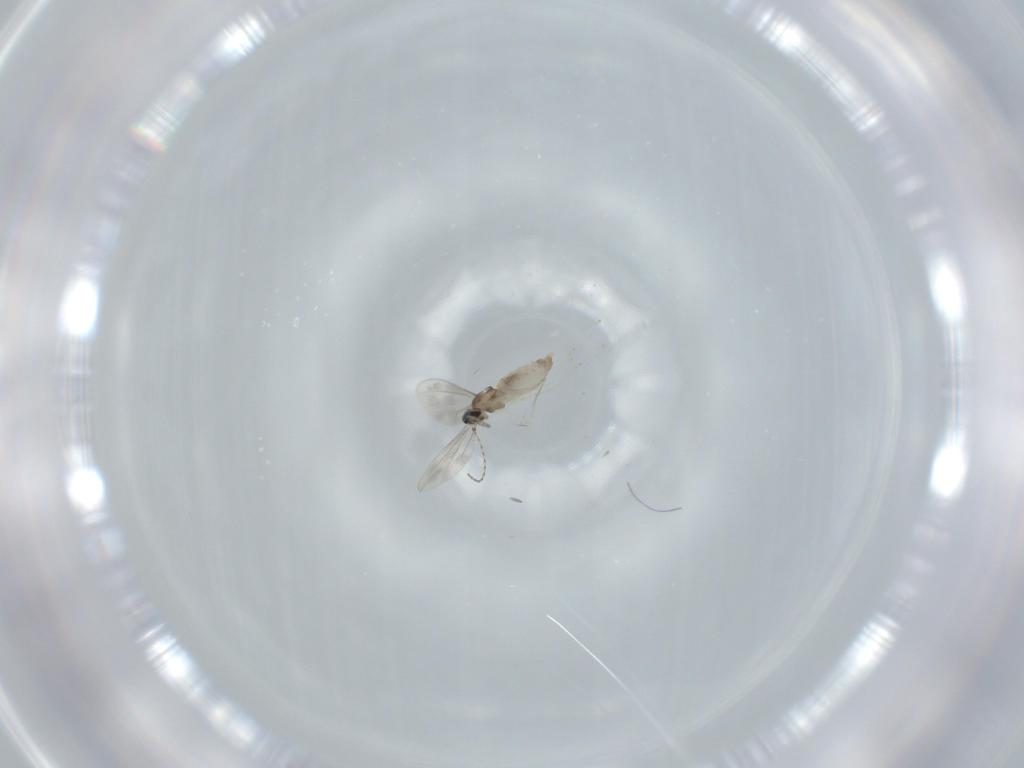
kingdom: Animalia
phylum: Arthropoda
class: Insecta
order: Diptera
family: Cecidomyiidae
